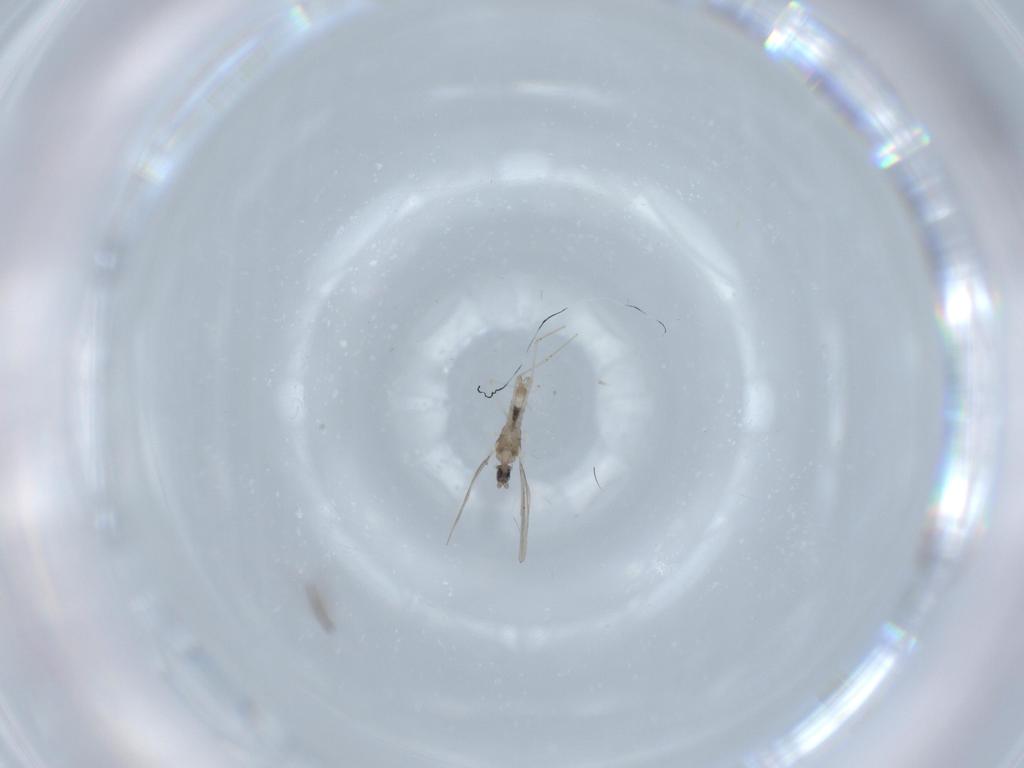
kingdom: Animalia
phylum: Arthropoda
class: Insecta
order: Diptera
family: Cecidomyiidae
